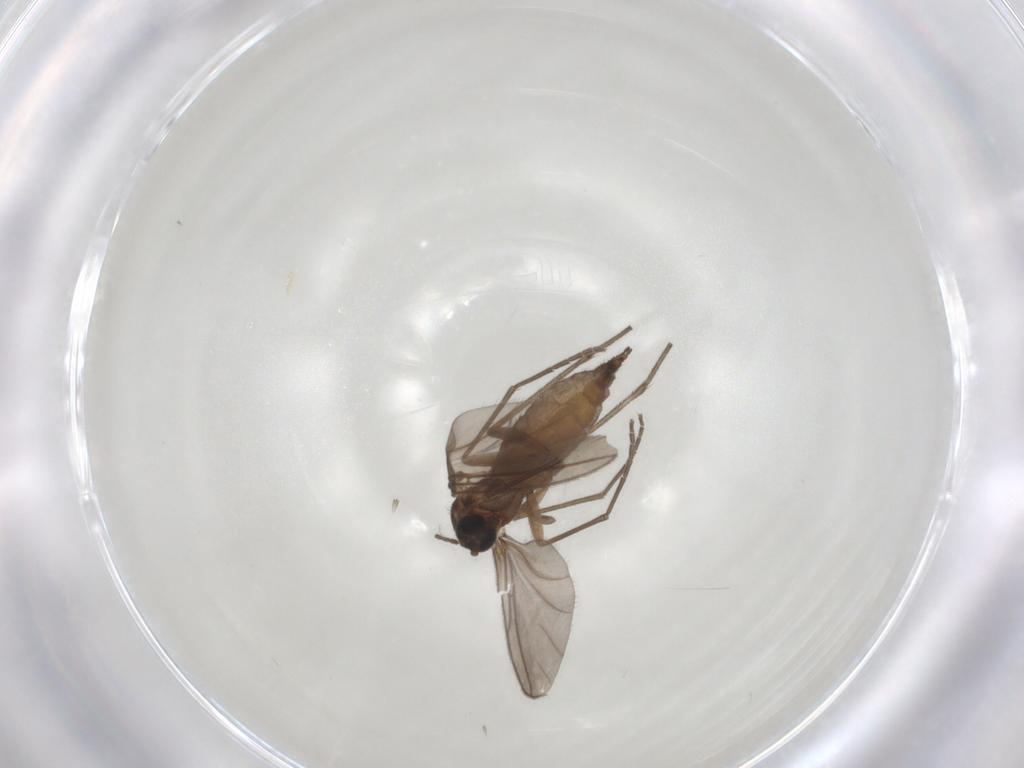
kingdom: Animalia
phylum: Arthropoda
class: Insecta
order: Diptera
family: Sciaridae
